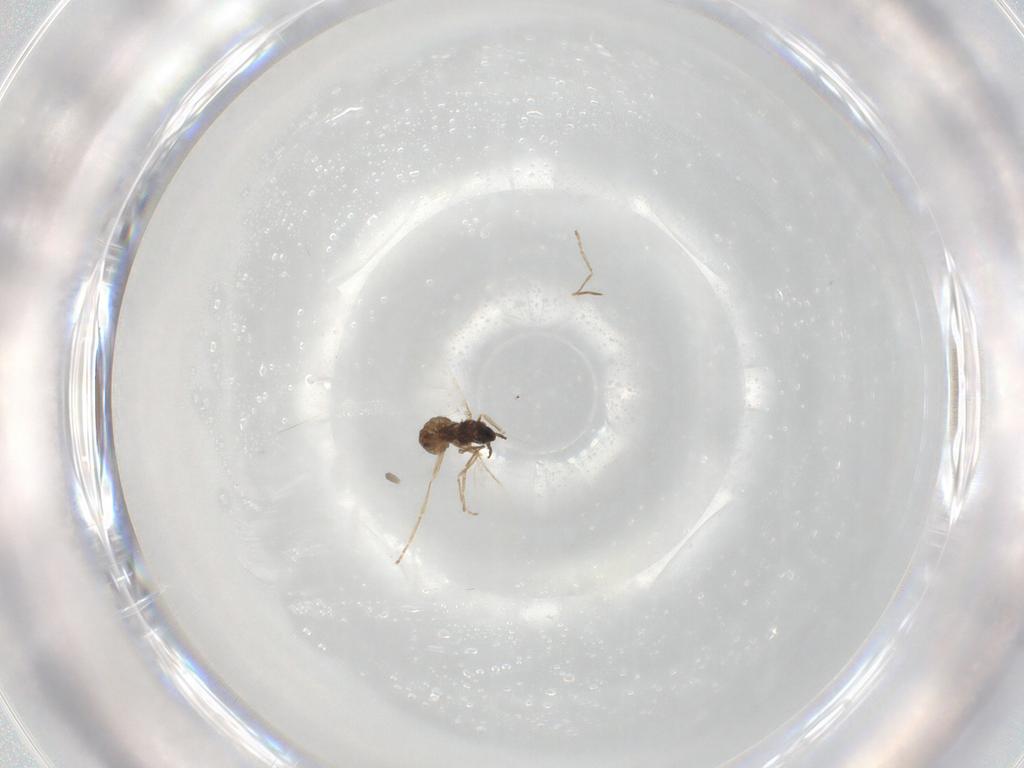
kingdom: Animalia
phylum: Arthropoda
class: Insecta
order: Diptera
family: Cecidomyiidae
